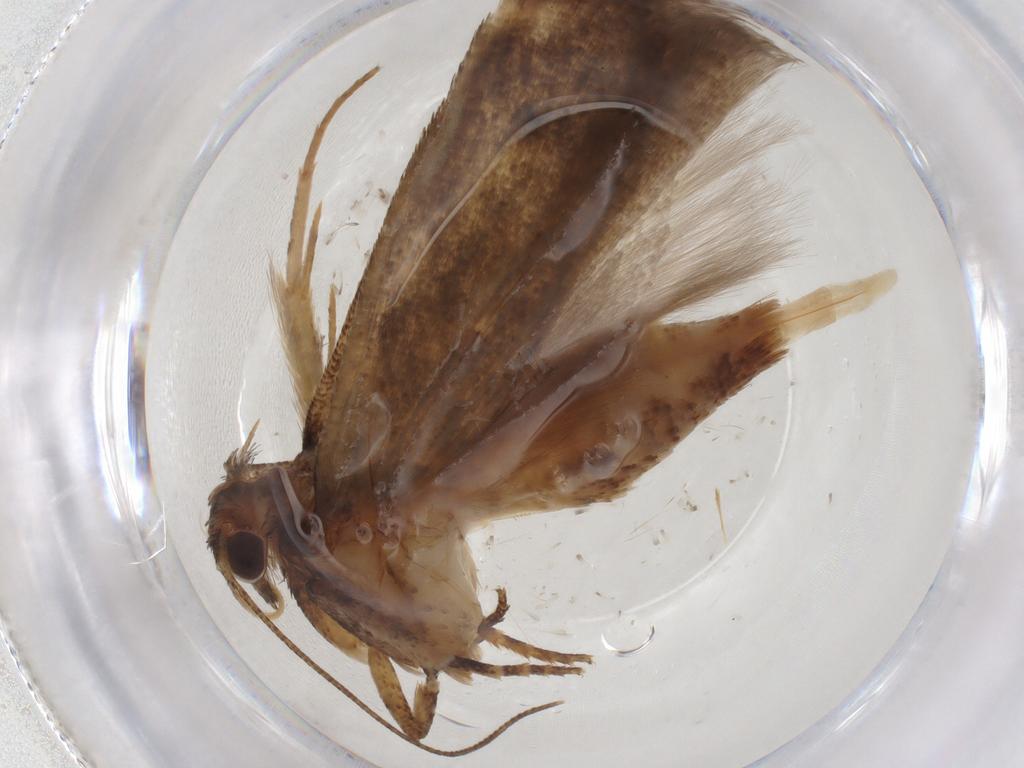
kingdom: Animalia
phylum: Arthropoda
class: Insecta
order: Lepidoptera
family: Gelechiidae
